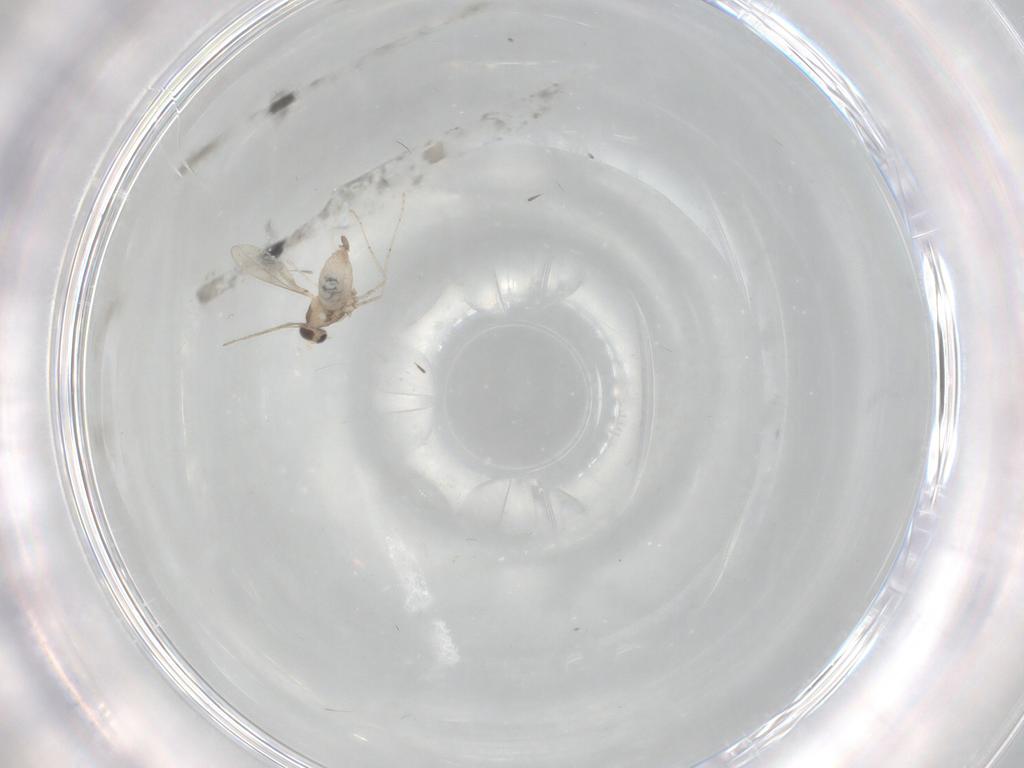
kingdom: Animalia
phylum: Arthropoda
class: Insecta
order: Diptera
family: Cecidomyiidae
